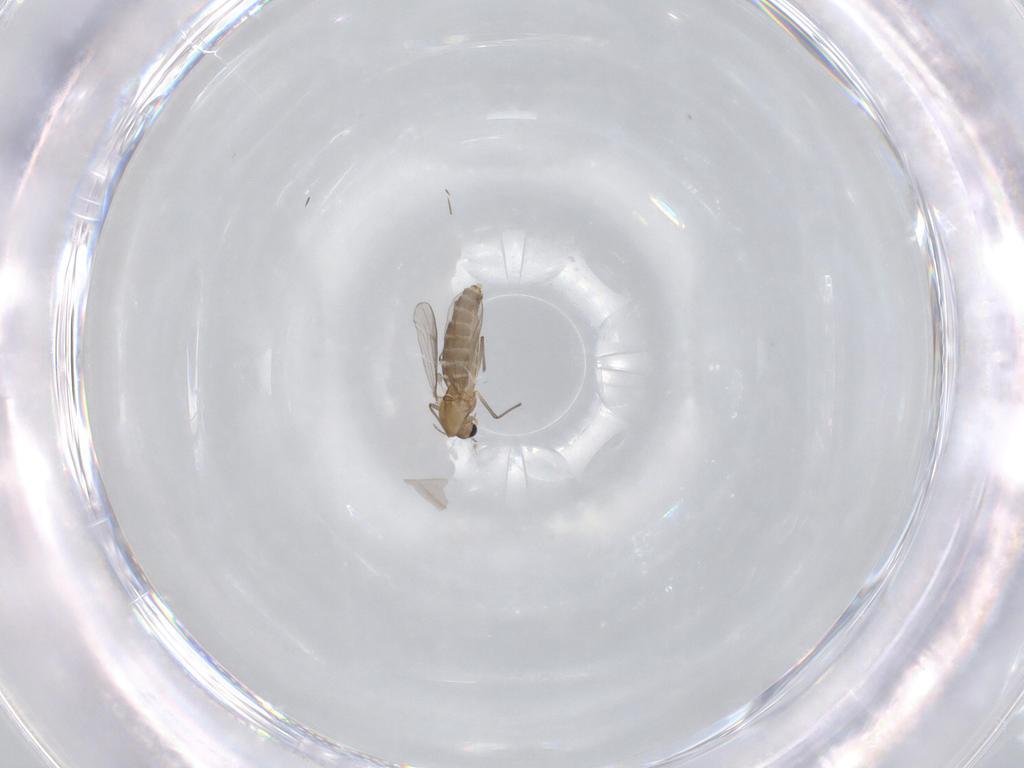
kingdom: Animalia
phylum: Arthropoda
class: Insecta
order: Diptera
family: Chironomidae
